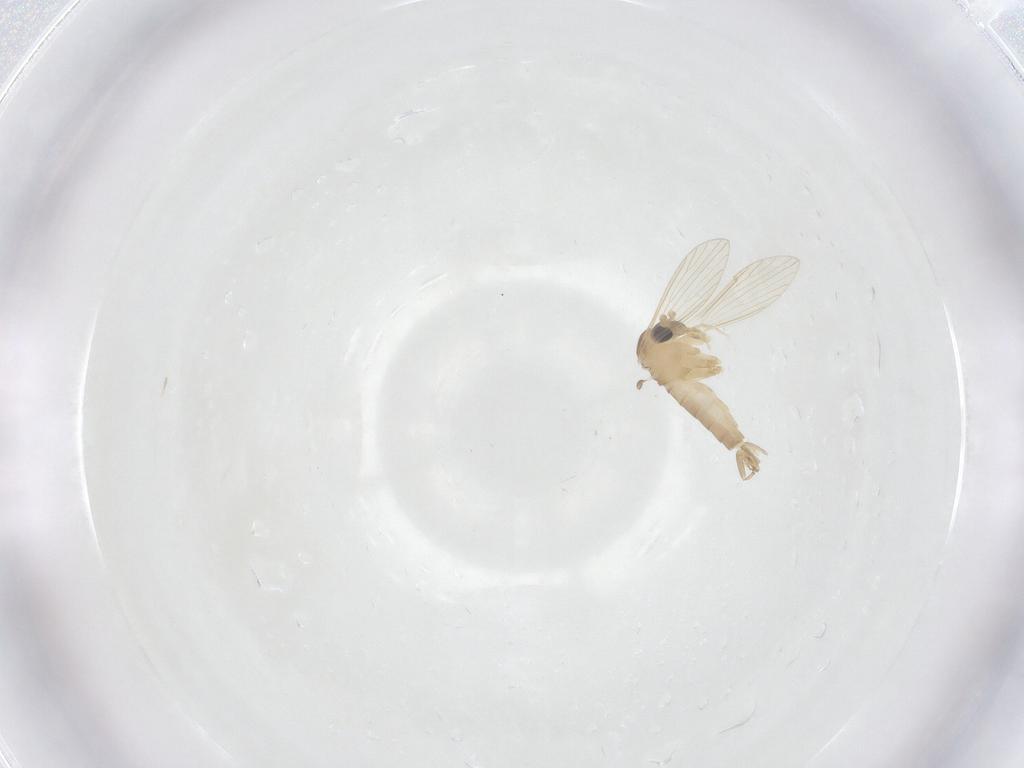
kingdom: Animalia
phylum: Arthropoda
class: Insecta
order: Diptera
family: Psychodidae
